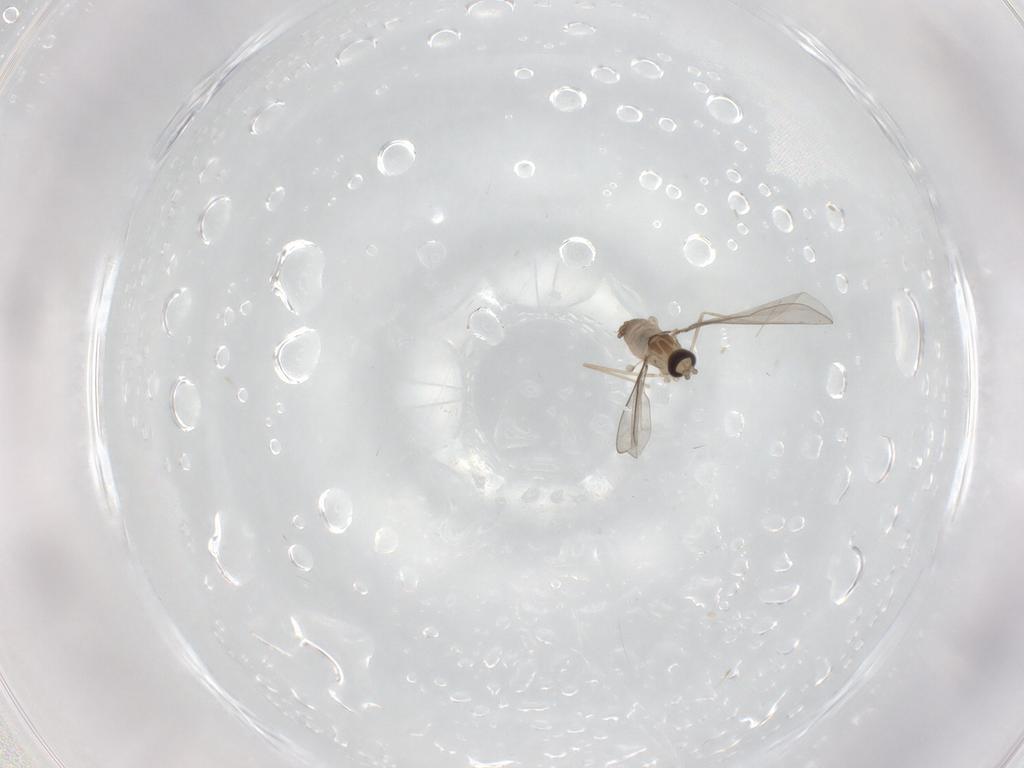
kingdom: Animalia
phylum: Arthropoda
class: Insecta
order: Diptera
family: Cecidomyiidae
